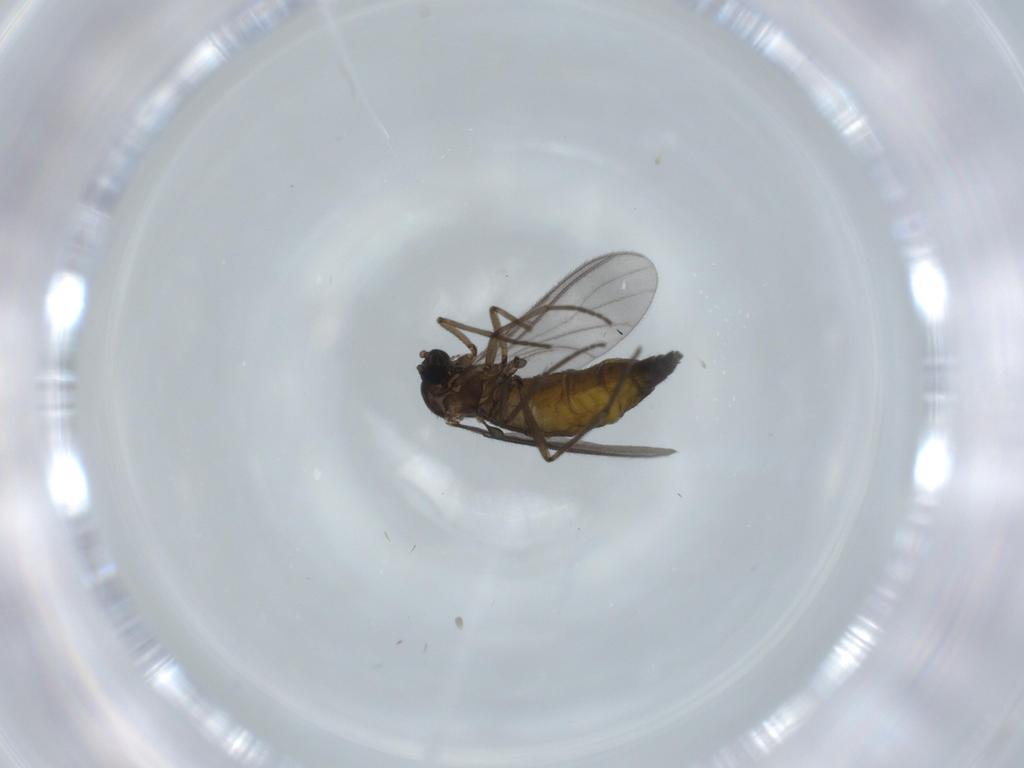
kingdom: Animalia
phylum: Arthropoda
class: Insecta
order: Diptera
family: Sciaridae
